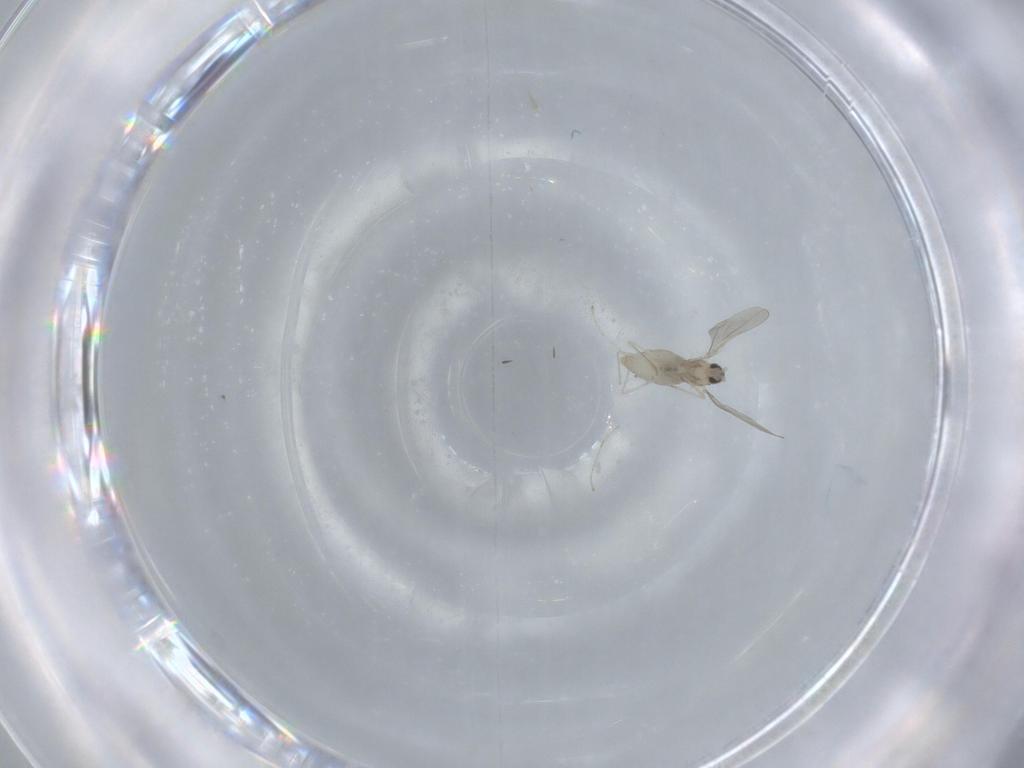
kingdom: Animalia
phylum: Arthropoda
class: Insecta
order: Diptera
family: Cecidomyiidae
